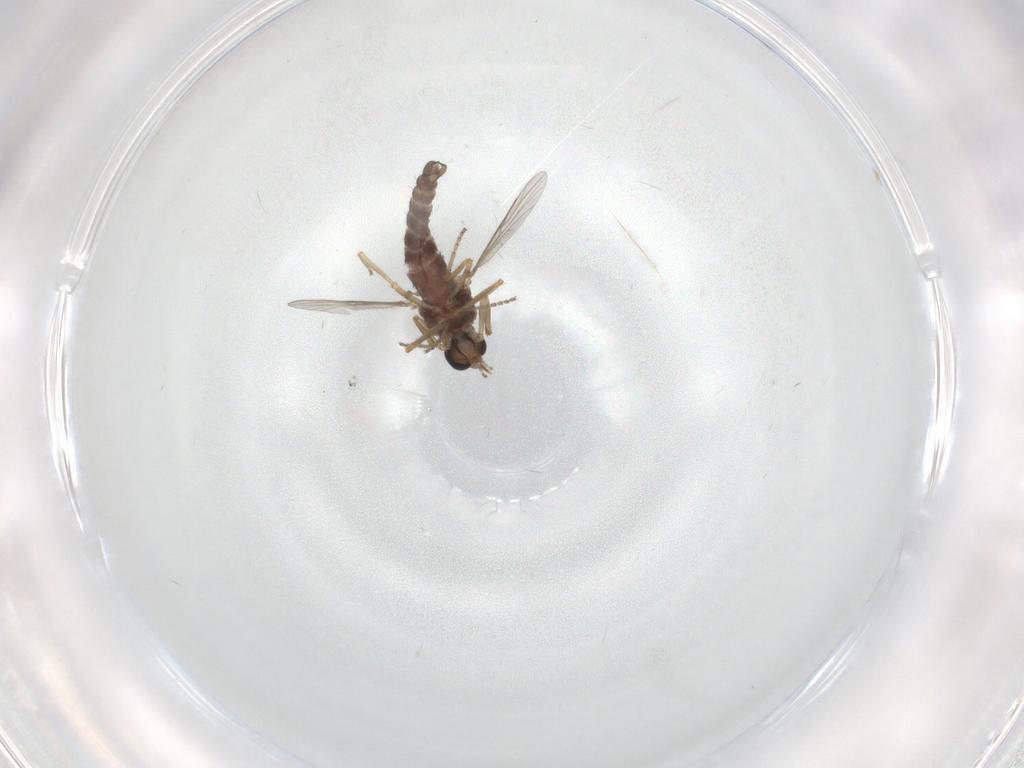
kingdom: Animalia
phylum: Arthropoda
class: Insecta
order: Diptera
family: Ceratopogonidae
